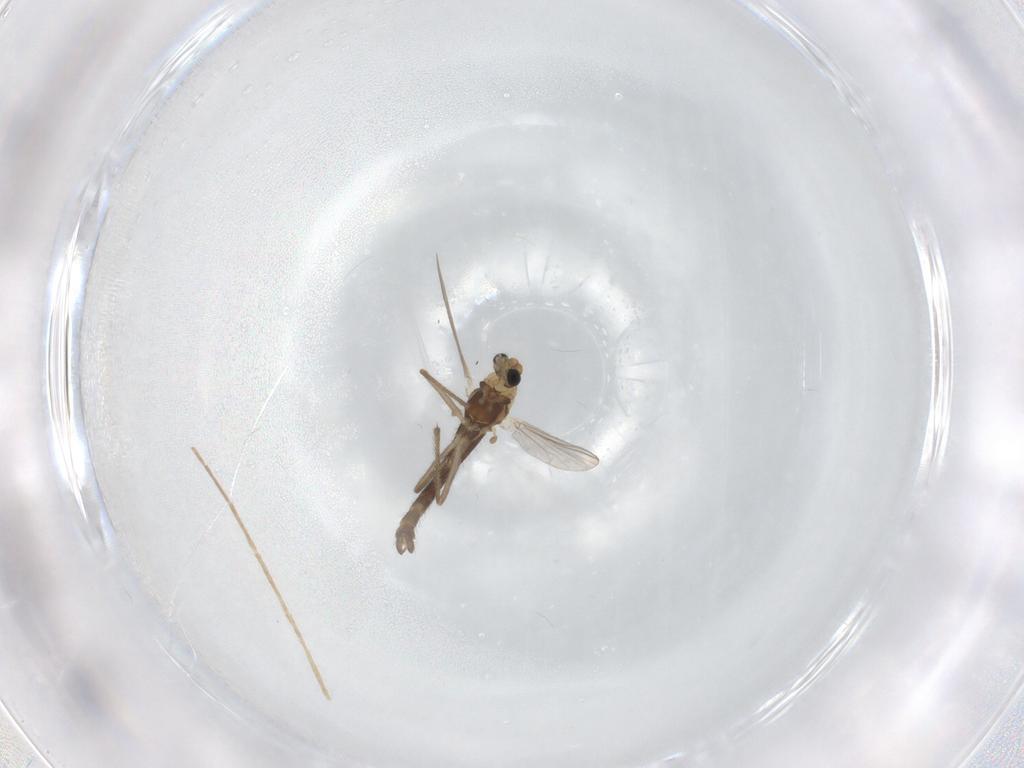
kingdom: Animalia
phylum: Arthropoda
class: Insecta
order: Diptera
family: Chironomidae
